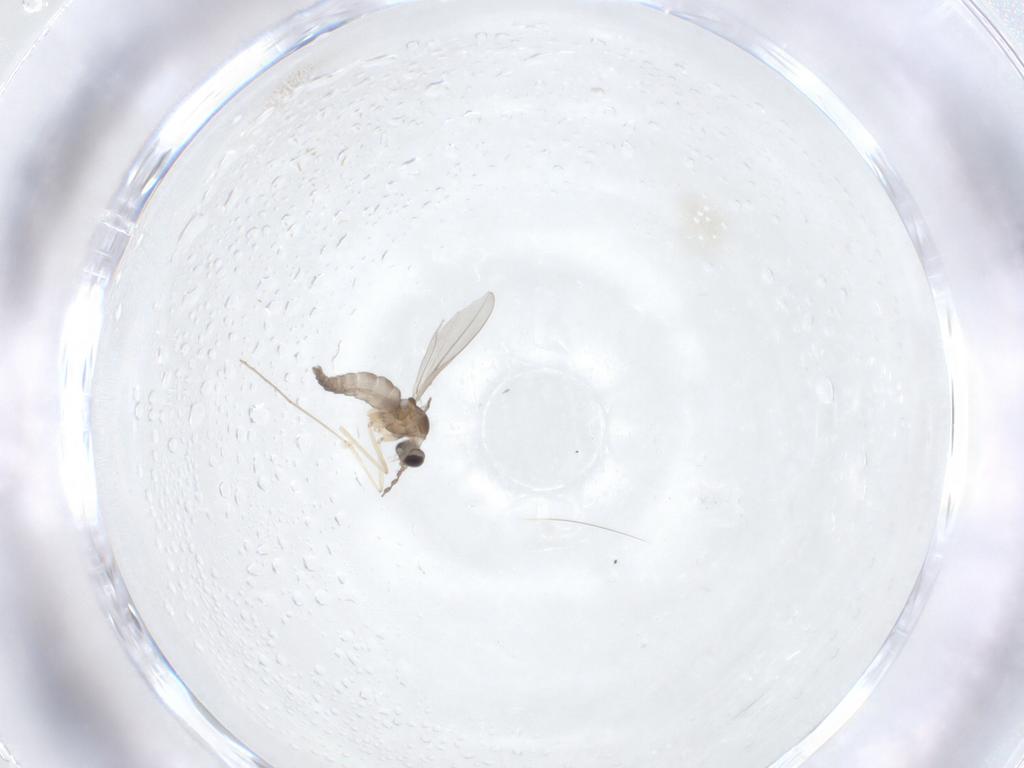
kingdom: Animalia
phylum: Arthropoda
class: Insecta
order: Diptera
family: Cecidomyiidae
